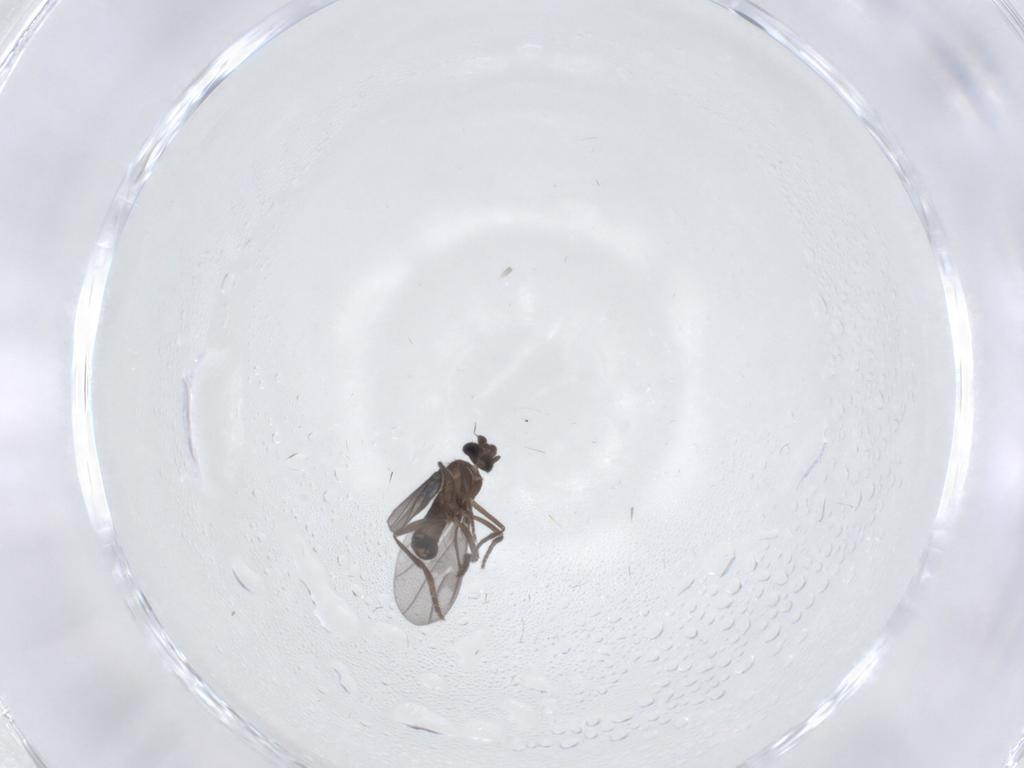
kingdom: Animalia
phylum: Arthropoda
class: Insecta
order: Diptera
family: Phoridae
